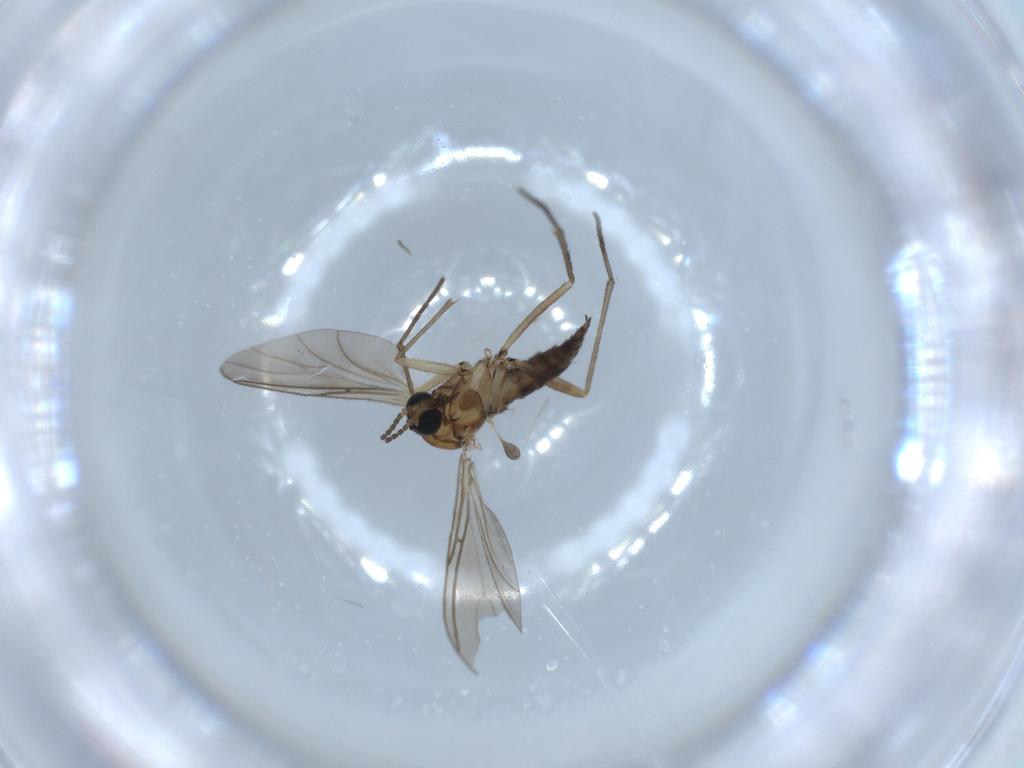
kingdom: Animalia
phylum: Arthropoda
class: Insecta
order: Diptera
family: Sciaridae
